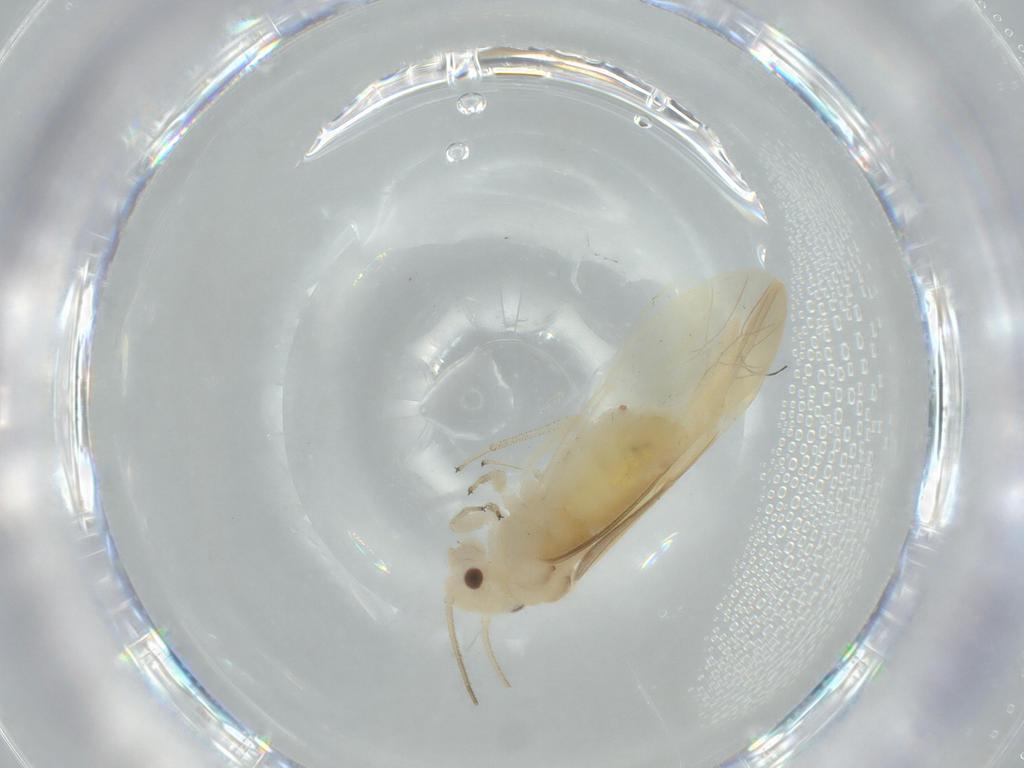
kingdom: Animalia
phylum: Arthropoda
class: Insecta
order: Psocodea
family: Caeciliusidae
